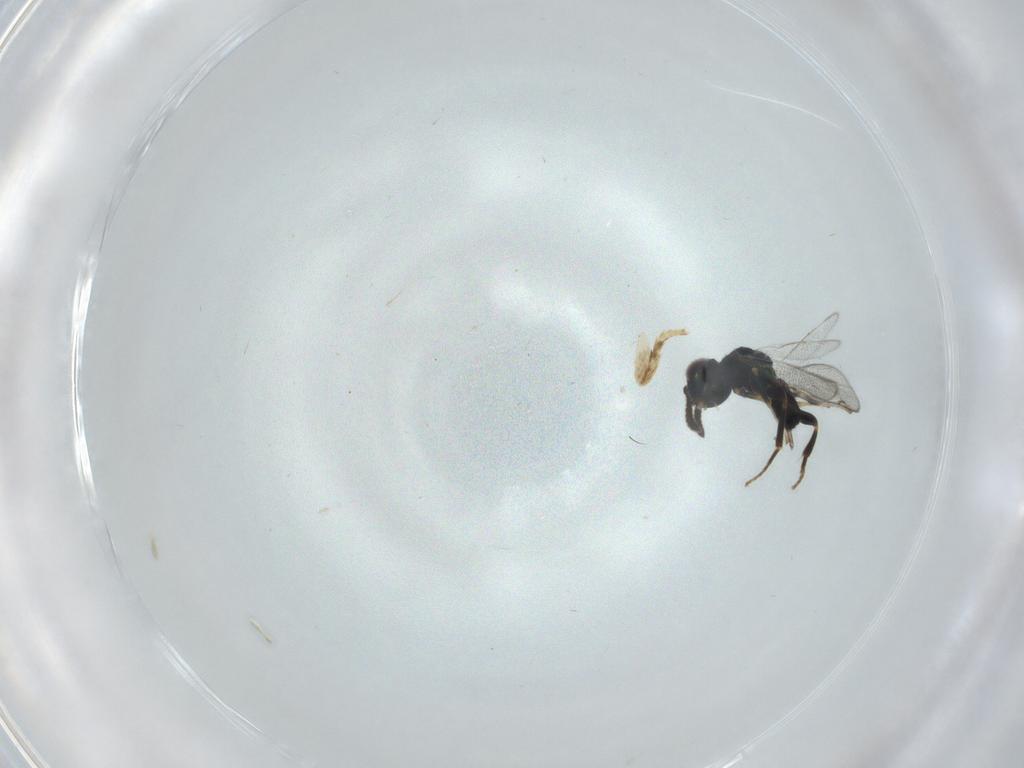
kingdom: Animalia
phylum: Arthropoda
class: Insecta
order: Hymenoptera
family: Cleonyminae
